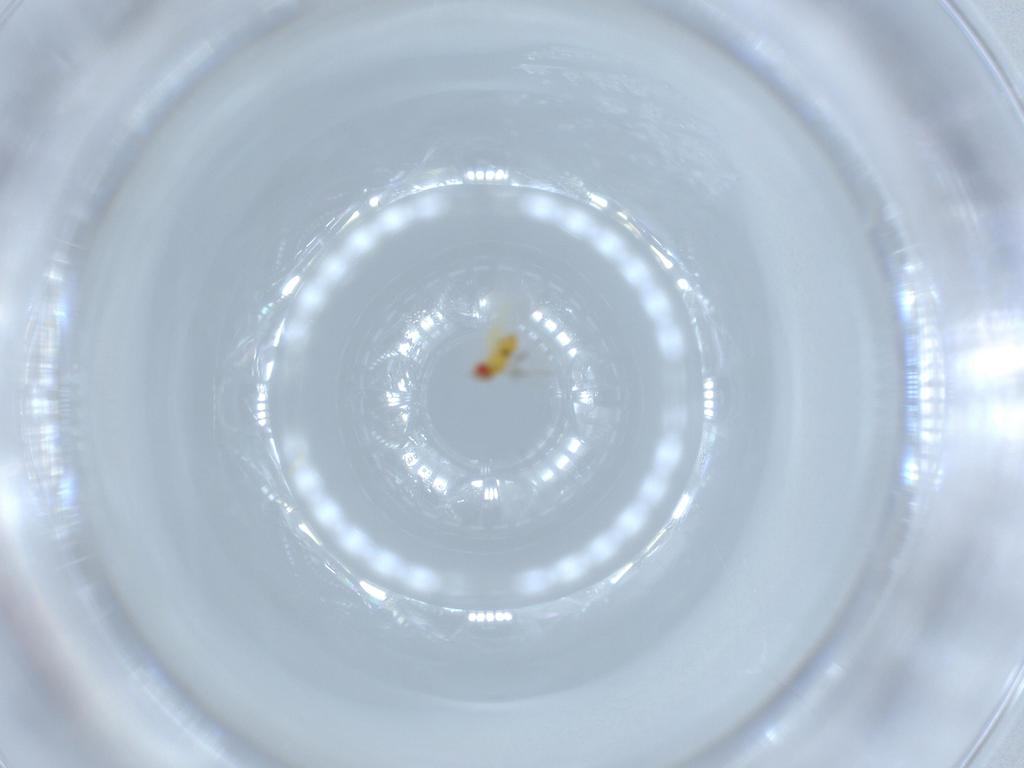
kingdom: Animalia
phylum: Arthropoda
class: Insecta
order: Hymenoptera
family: Trichogrammatidae
